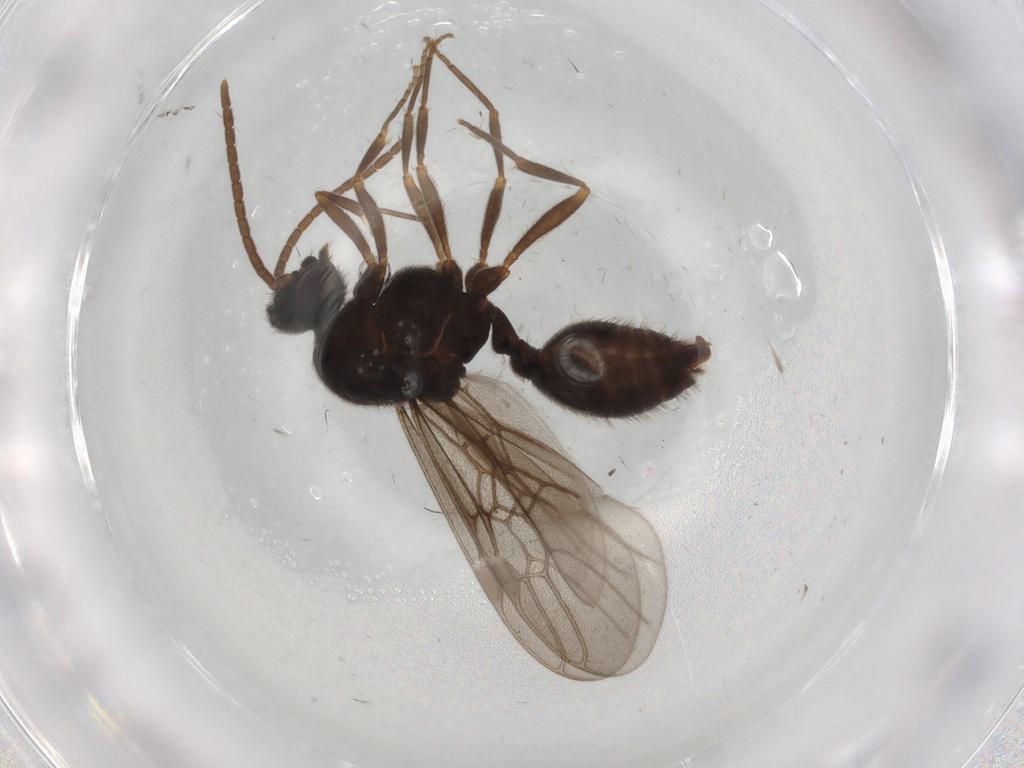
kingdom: Animalia
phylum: Arthropoda
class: Insecta
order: Hymenoptera
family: Formicidae
